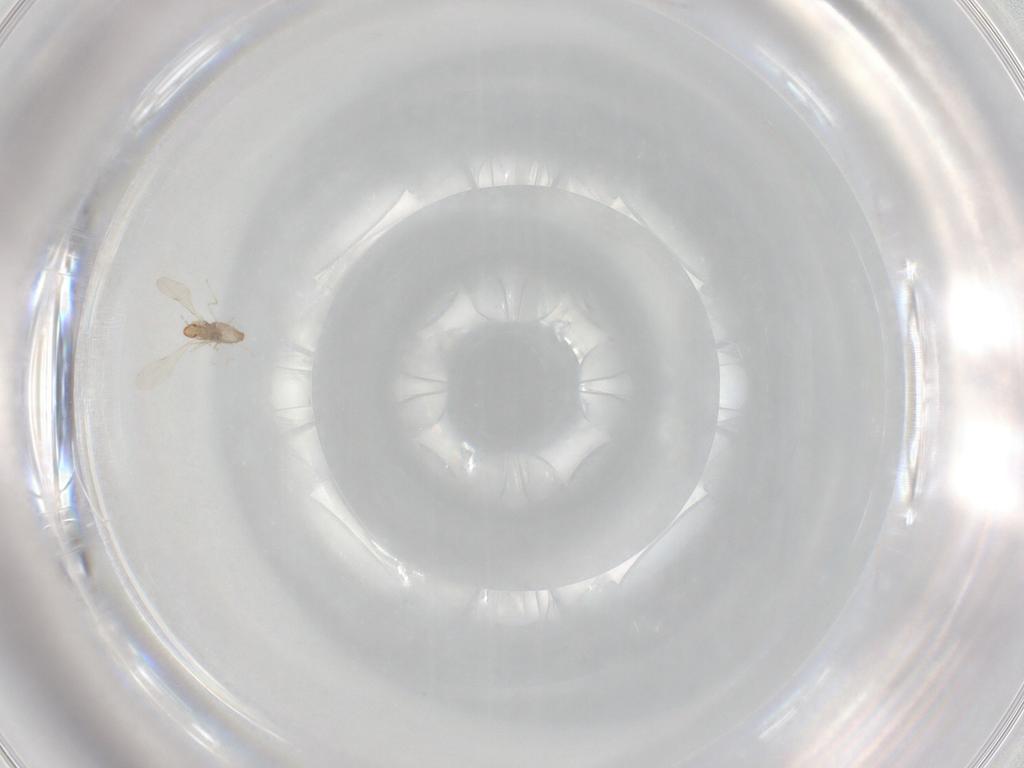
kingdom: Animalia
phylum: Arthropoda
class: Insecta
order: Diptera
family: Cecidomyiidae
